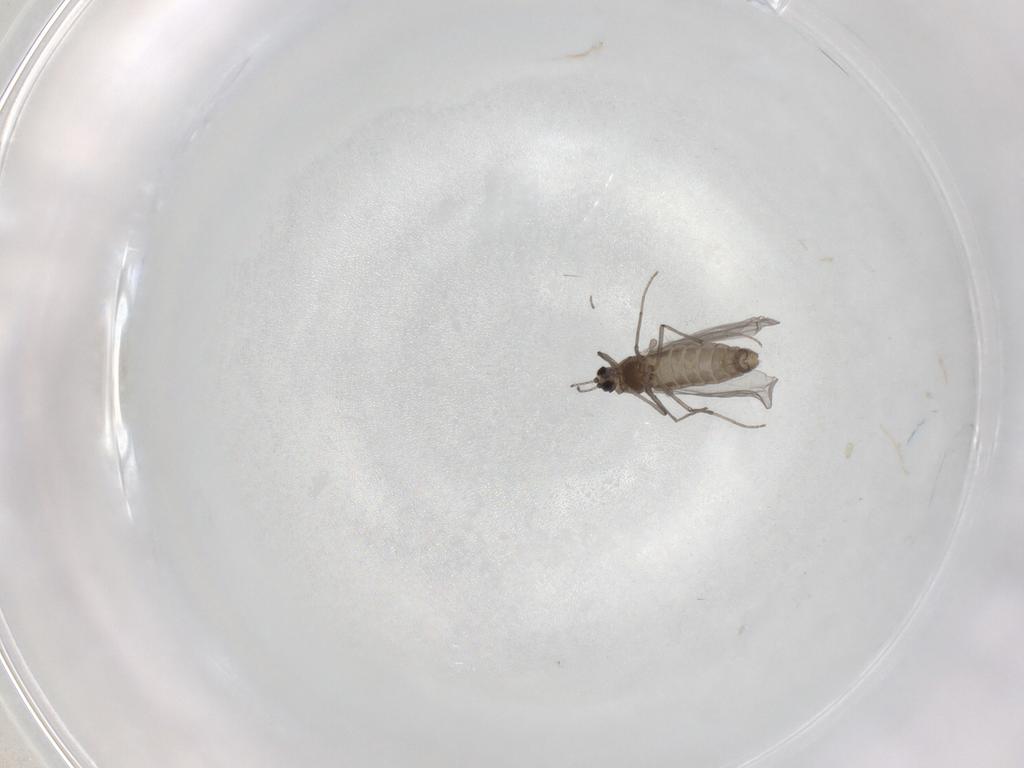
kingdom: Animalia
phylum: Arthropoda
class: Insecta
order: Diptera
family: Chironomidae
